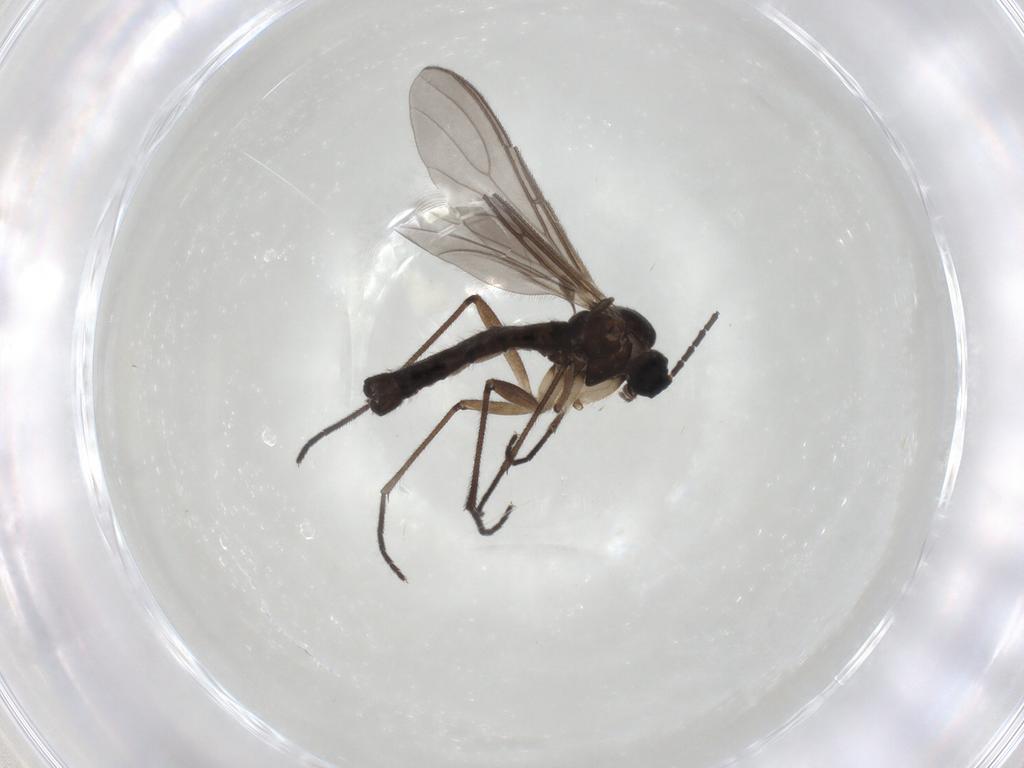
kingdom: Animalia
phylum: Arthropoda
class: Insecta
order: Diptera
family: Sciaridae
